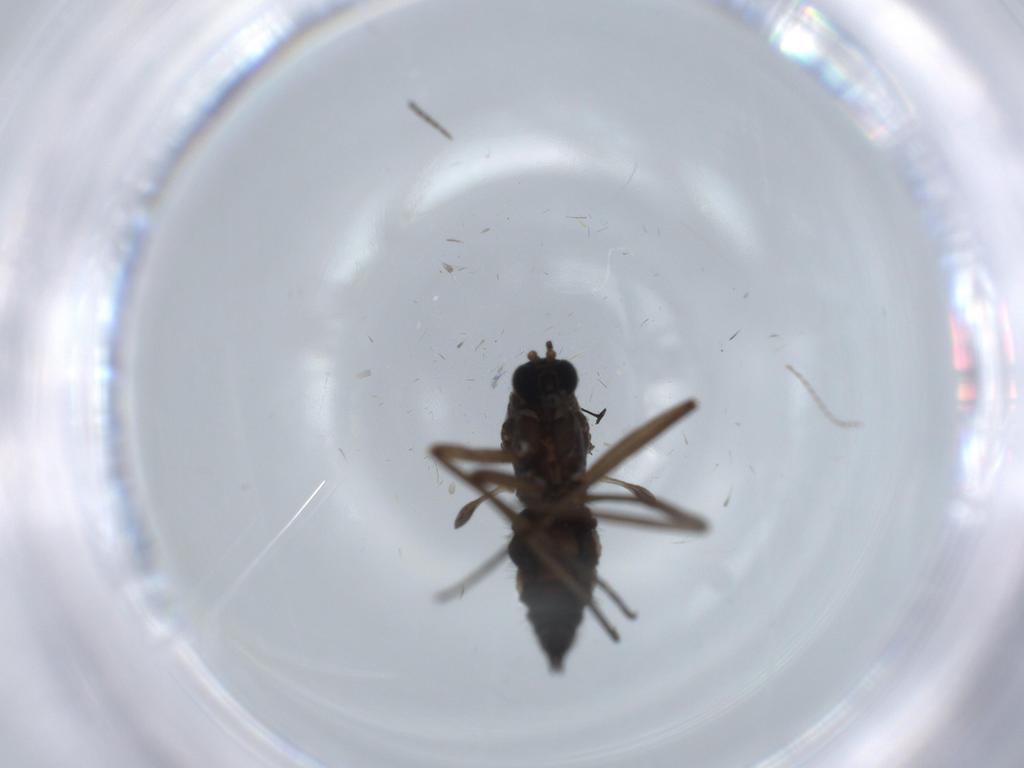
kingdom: Animalia
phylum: Arthropoda
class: Insecta
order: Diptera
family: Sciaridae
